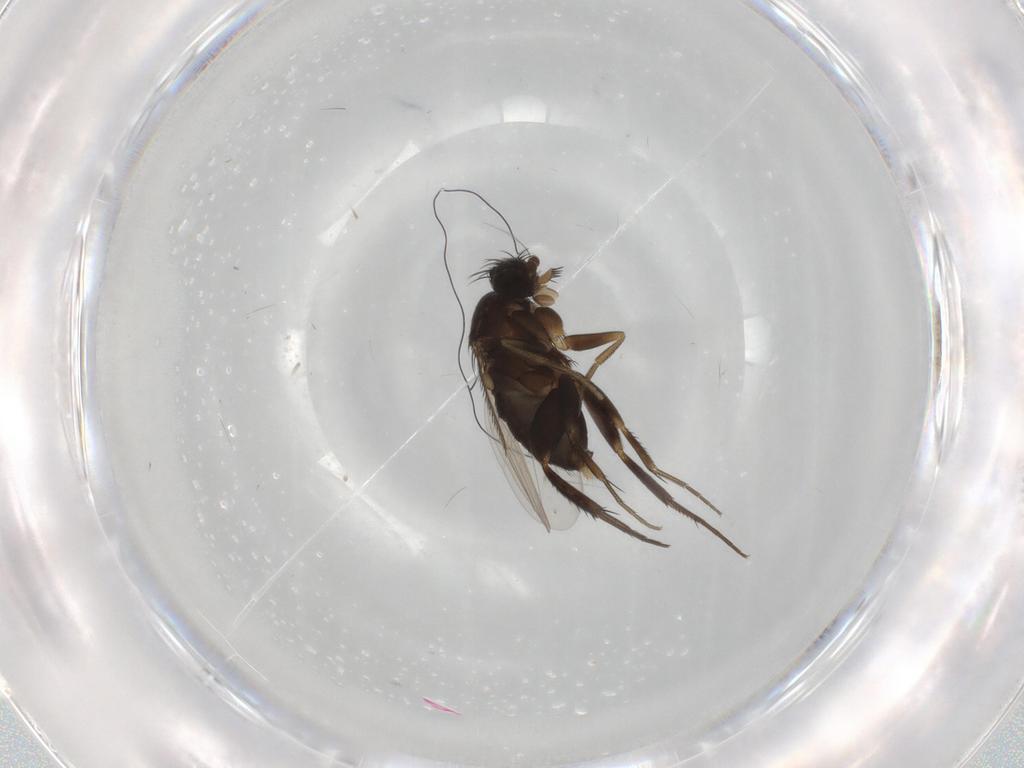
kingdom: Animalia
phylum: Arthropoda
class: Insecta
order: Diptera
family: Phoridae
